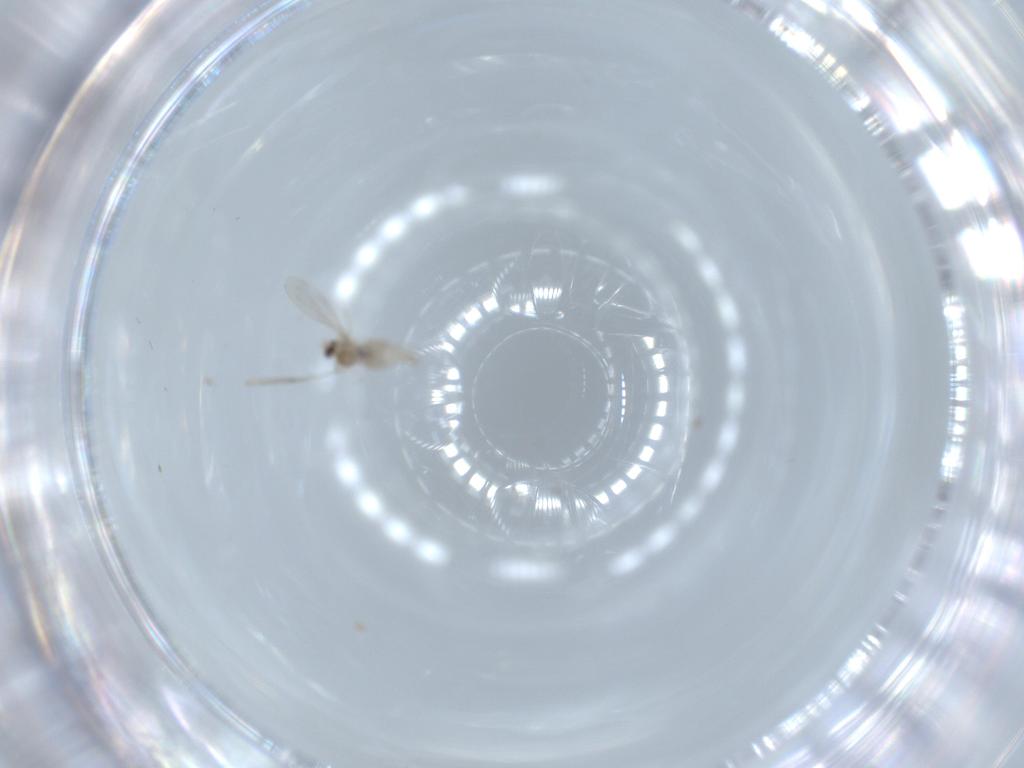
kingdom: Animalia
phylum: Arthropoda
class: Insecta
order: Diptera
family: Cecidomyiidae
